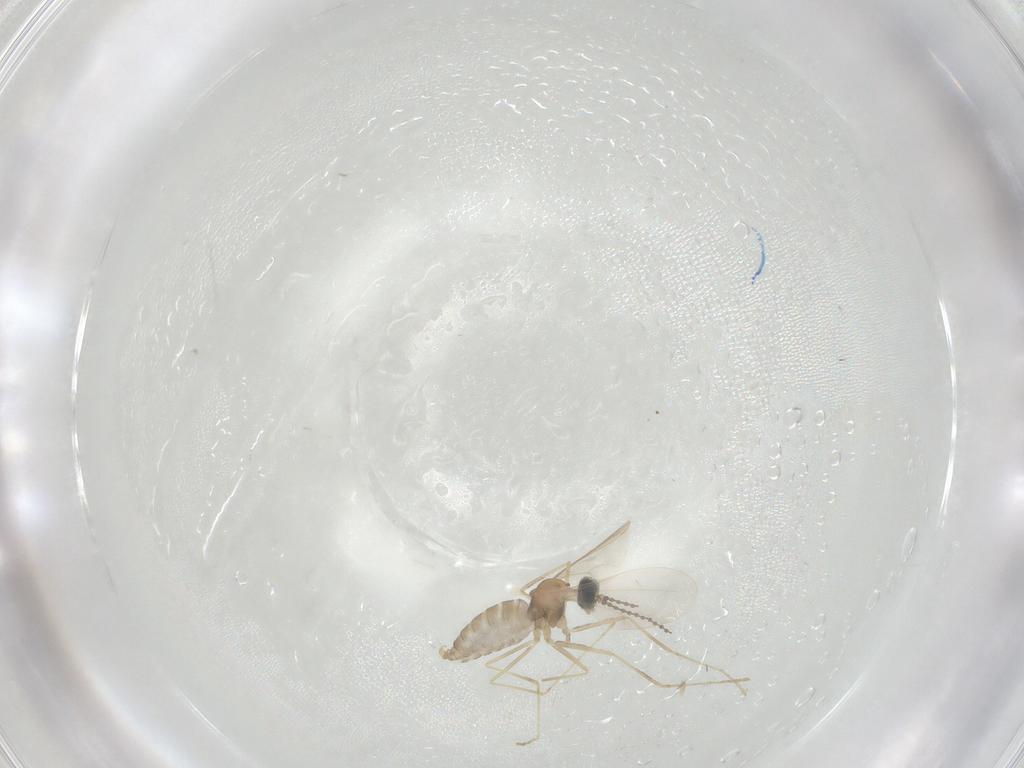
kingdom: Animalia
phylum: Arthropoda
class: Insecta
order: Diptera
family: Cecidomyiidae
